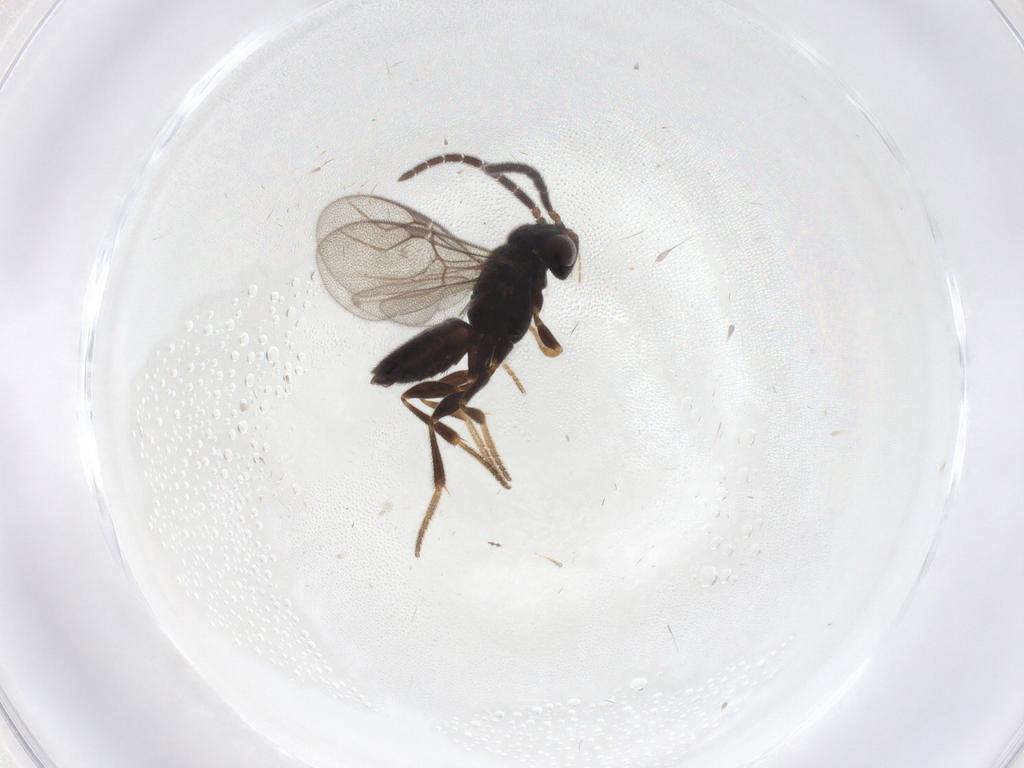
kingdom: Animalia
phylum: Arthropoda
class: Insecta
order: Hymenoptera
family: Dryinidae
